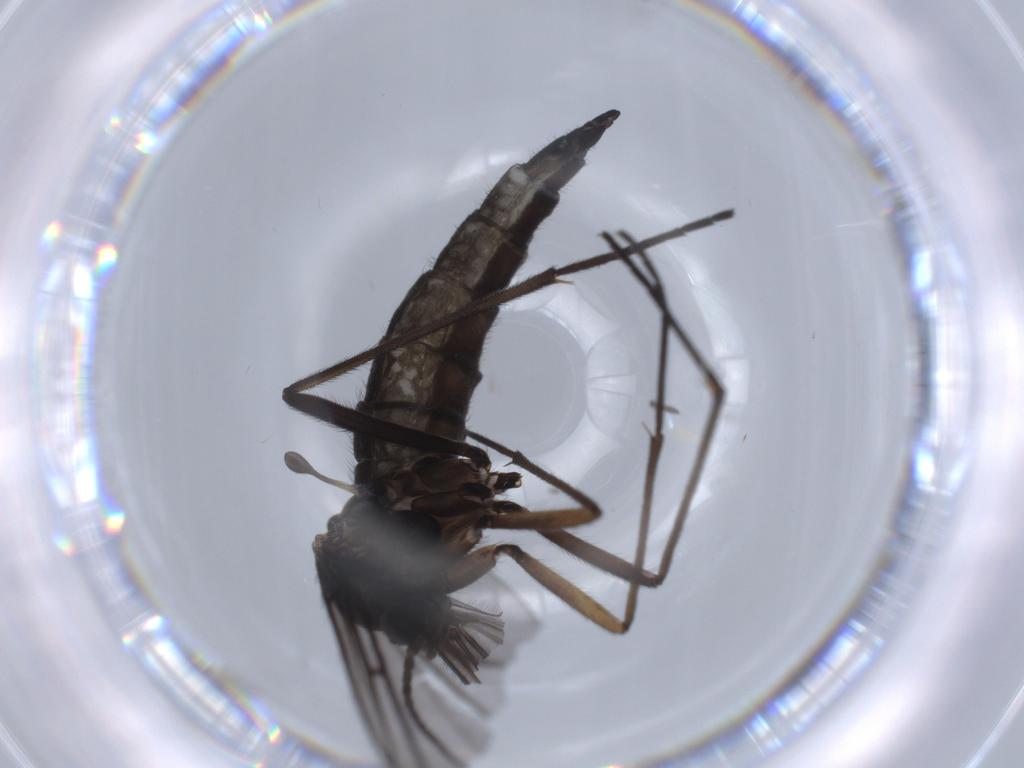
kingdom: Animalia
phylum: Arthropoda
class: Insecta
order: Diptera
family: Sciaridae
